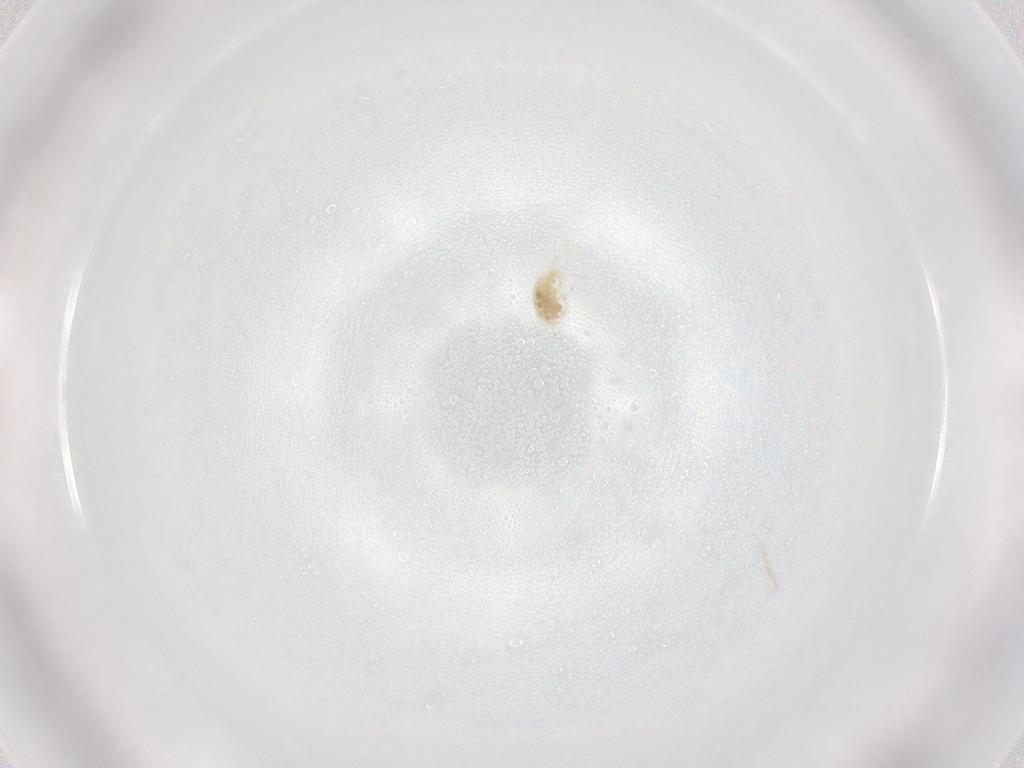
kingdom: Animalia
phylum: Arthropoda
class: Arachnida
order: Trombidiformes
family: Eupodidae
